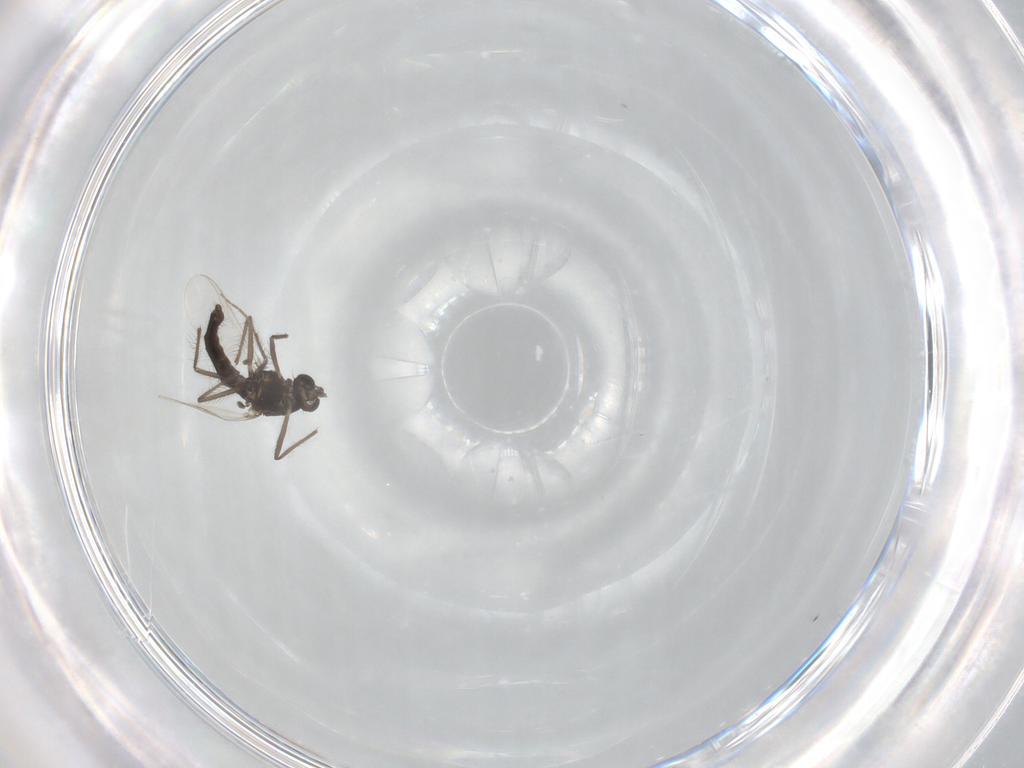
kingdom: Animalia
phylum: Arthropoda
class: Insecta
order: Diptera
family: Chironomidae
